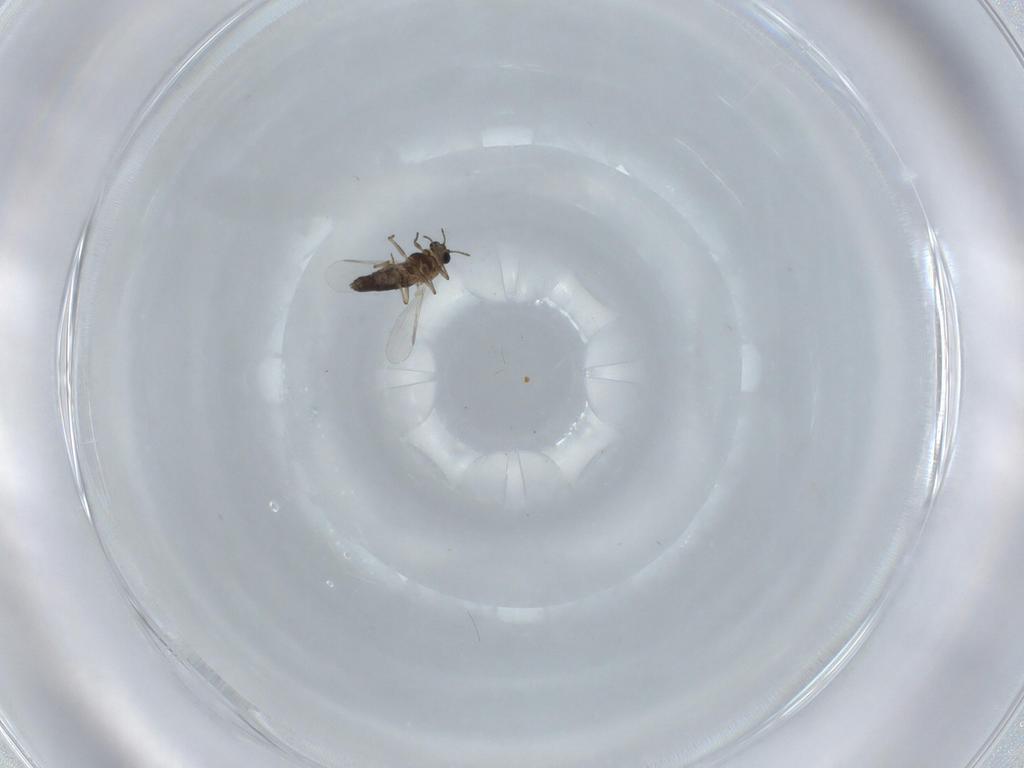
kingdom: Animalia
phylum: Arthropoda
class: Insecta
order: Diptera
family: Chironomidae
